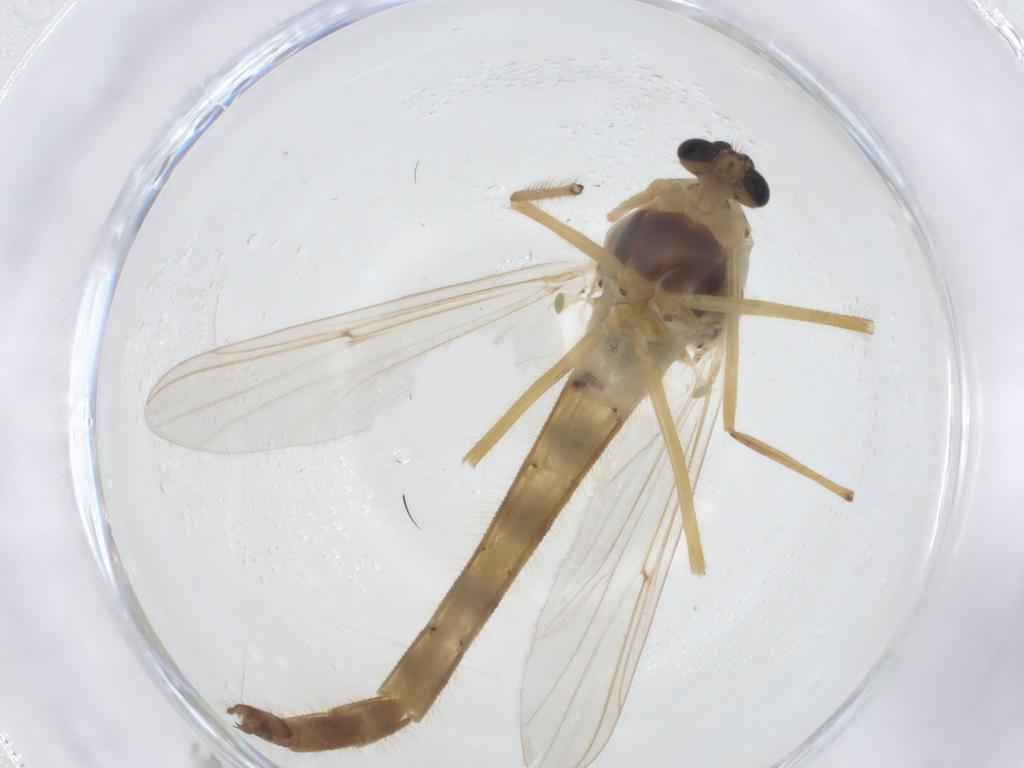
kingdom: Animalia
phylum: Arthropoda
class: Insecta
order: Diptera
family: Chironomidae
